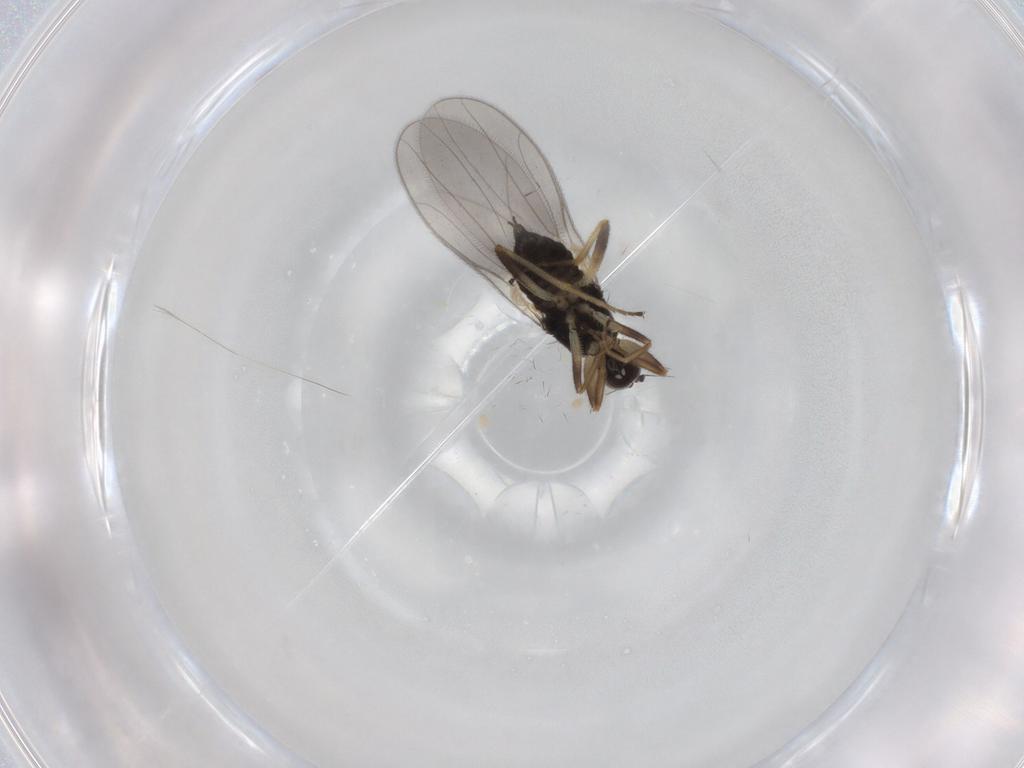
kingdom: Animalia
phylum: Arthropoda
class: Insecta
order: Diptera
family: Hybotidae
